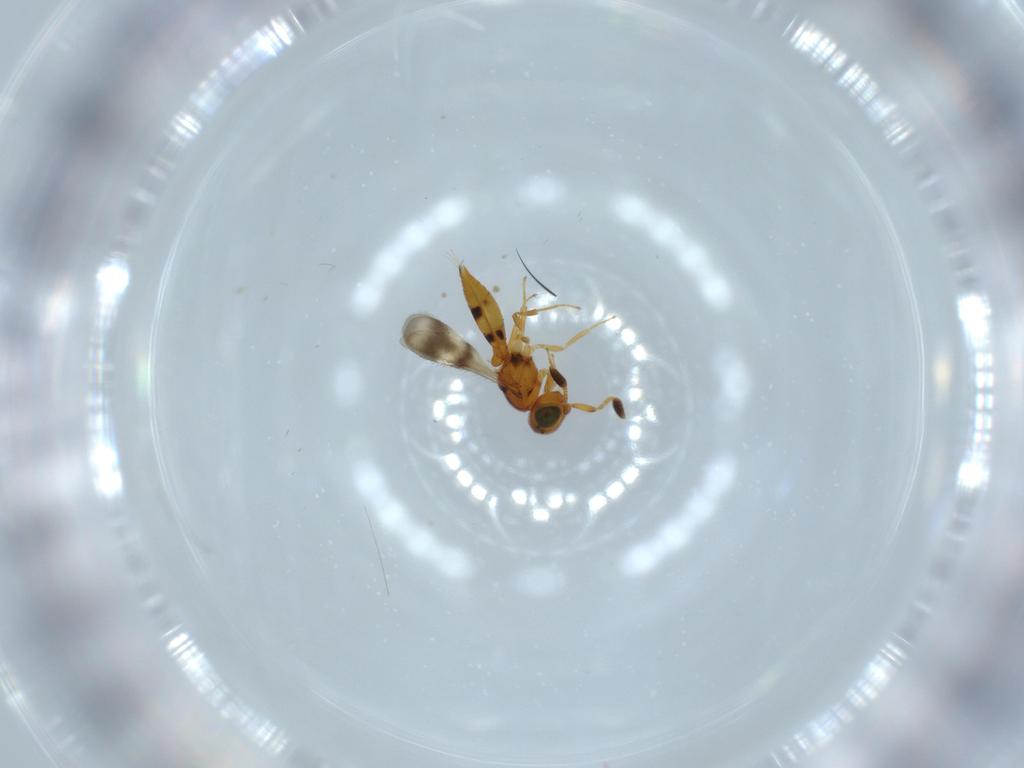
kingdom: Animalia
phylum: Arthropoda
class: Insecta
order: Hymenoptera
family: Scelionidae
